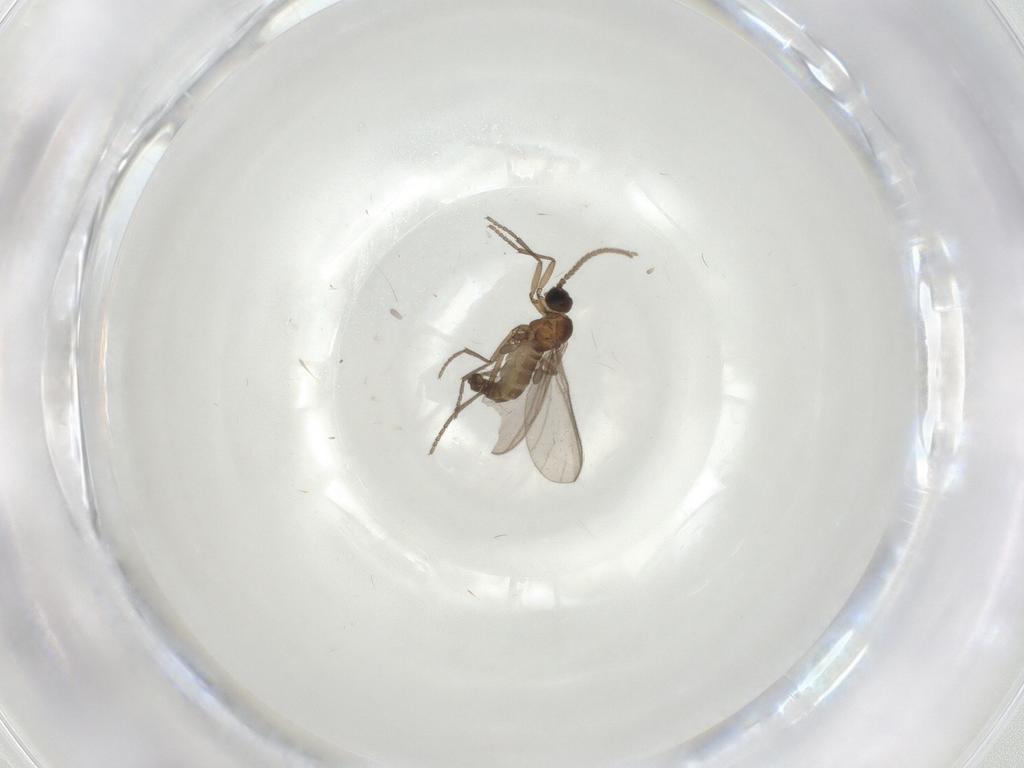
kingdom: Animalia
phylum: Arthropoda
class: Insecta
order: Diptera
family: Sciaridae
